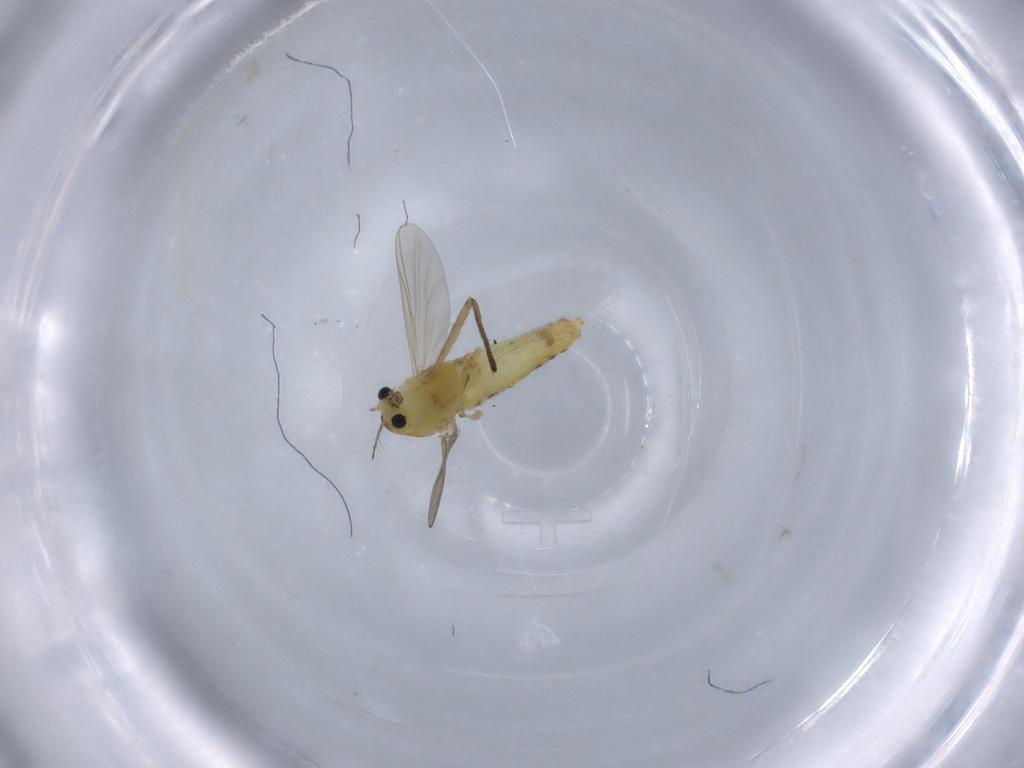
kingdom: Animalia
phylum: Arthropoda
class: Insecta
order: Diptera
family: Chironomidae
